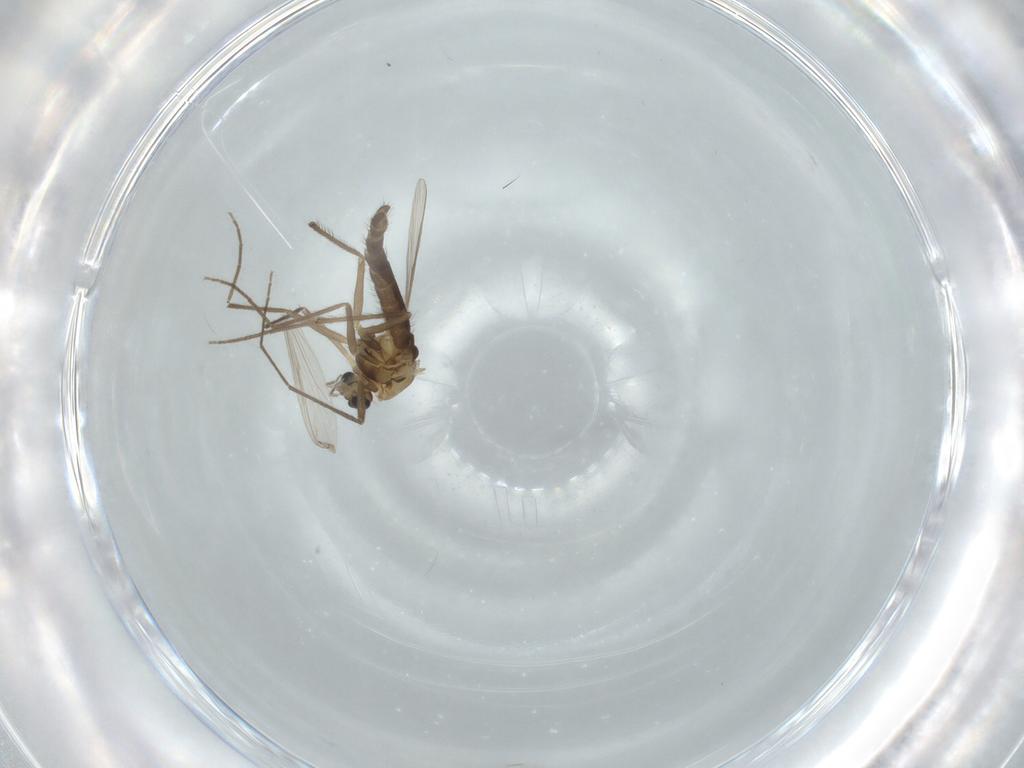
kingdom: Animalia
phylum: Arthropoda
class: Insecta
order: Diptera
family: Chironomidae
